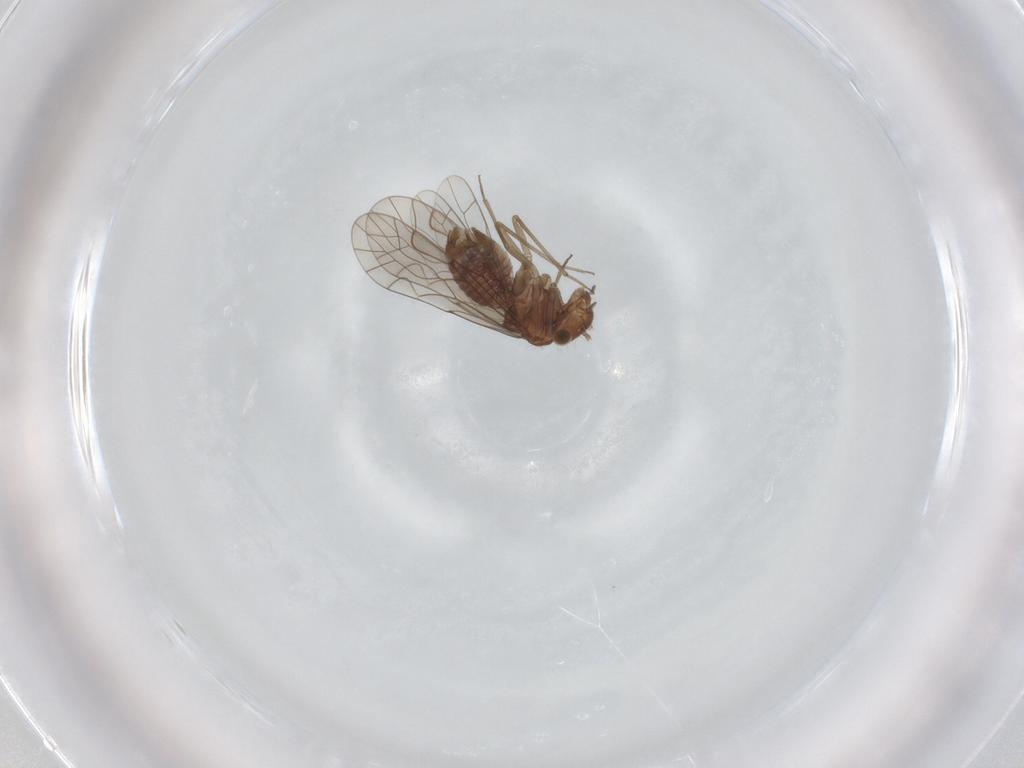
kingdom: Animalia
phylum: Arthropoda
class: Insecta
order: Psocodea
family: Lachesillidae
